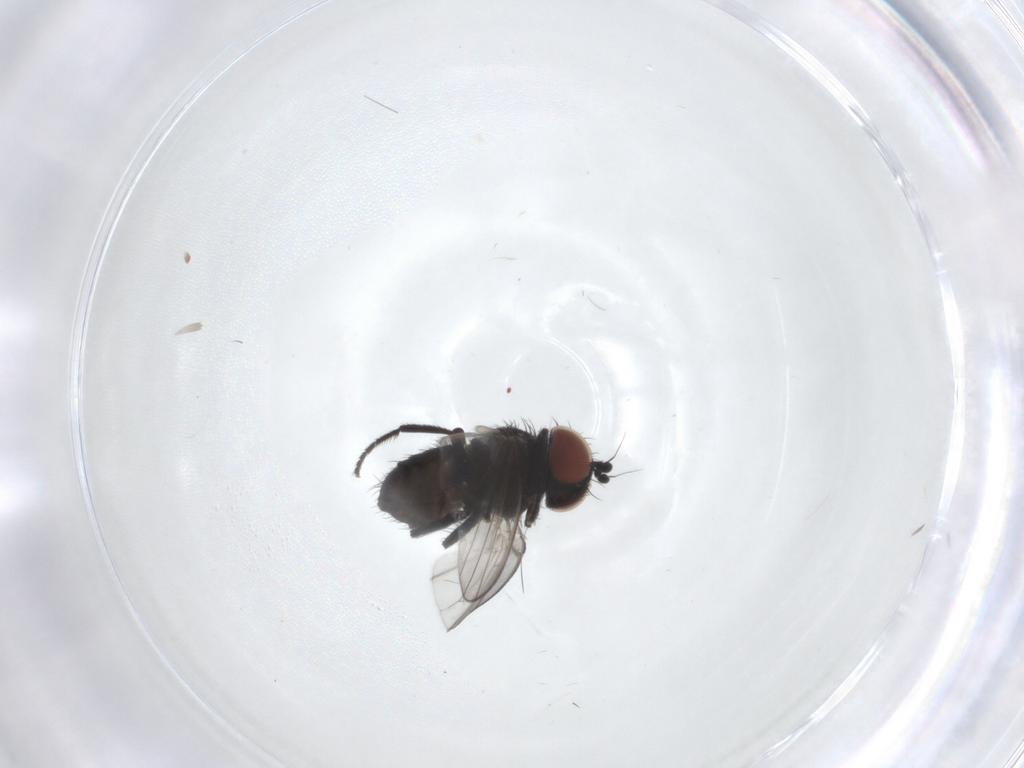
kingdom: Animalia
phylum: Arthropoda
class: Insecta
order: Diptera
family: Milichiidae
